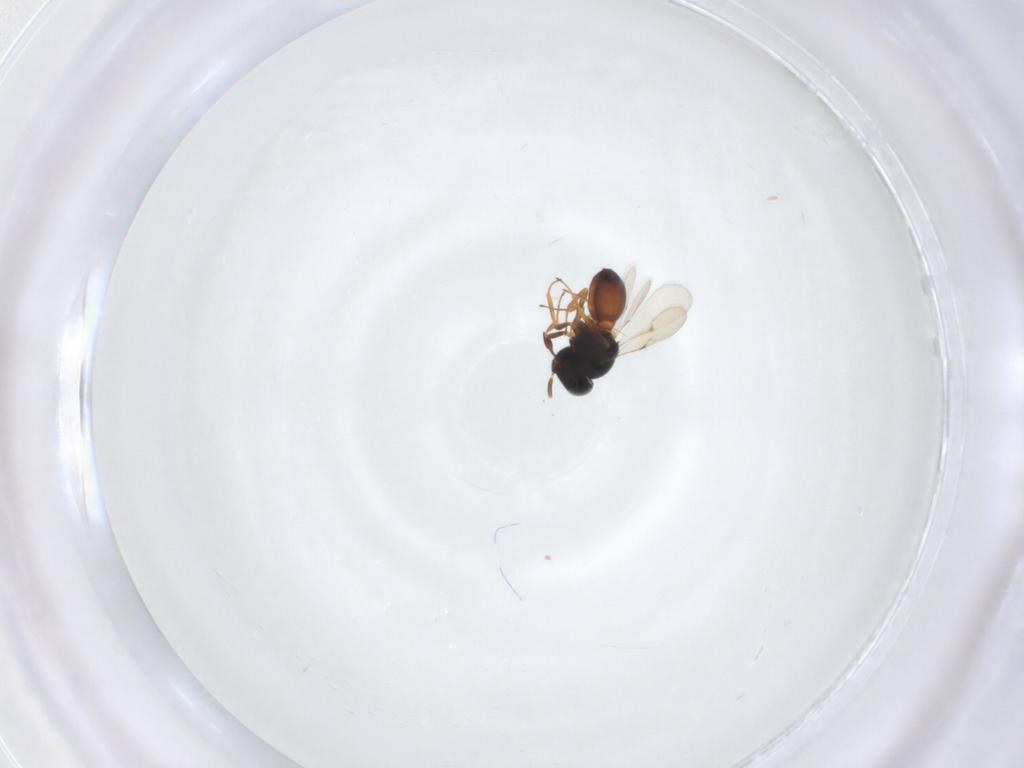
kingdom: Animalia
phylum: Arthropoda
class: Insecta
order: Hymenoptera
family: Scelionidae
